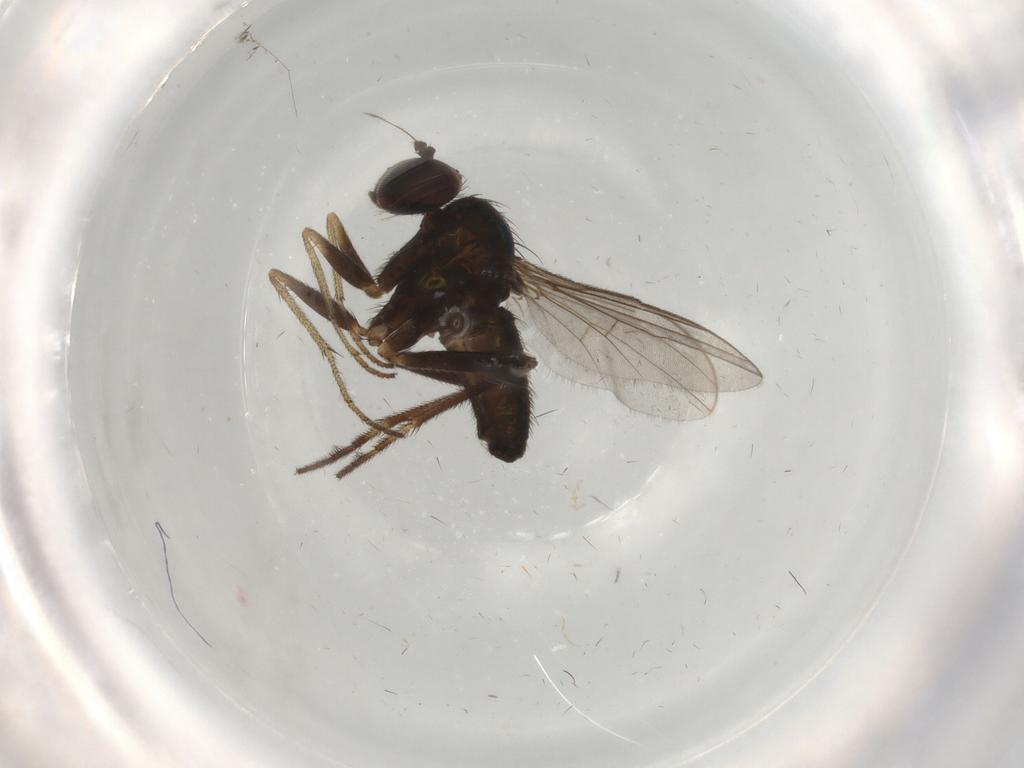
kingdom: Animalia
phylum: Arthropoda
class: Insecta
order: Diptera
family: Dolichopodidae
